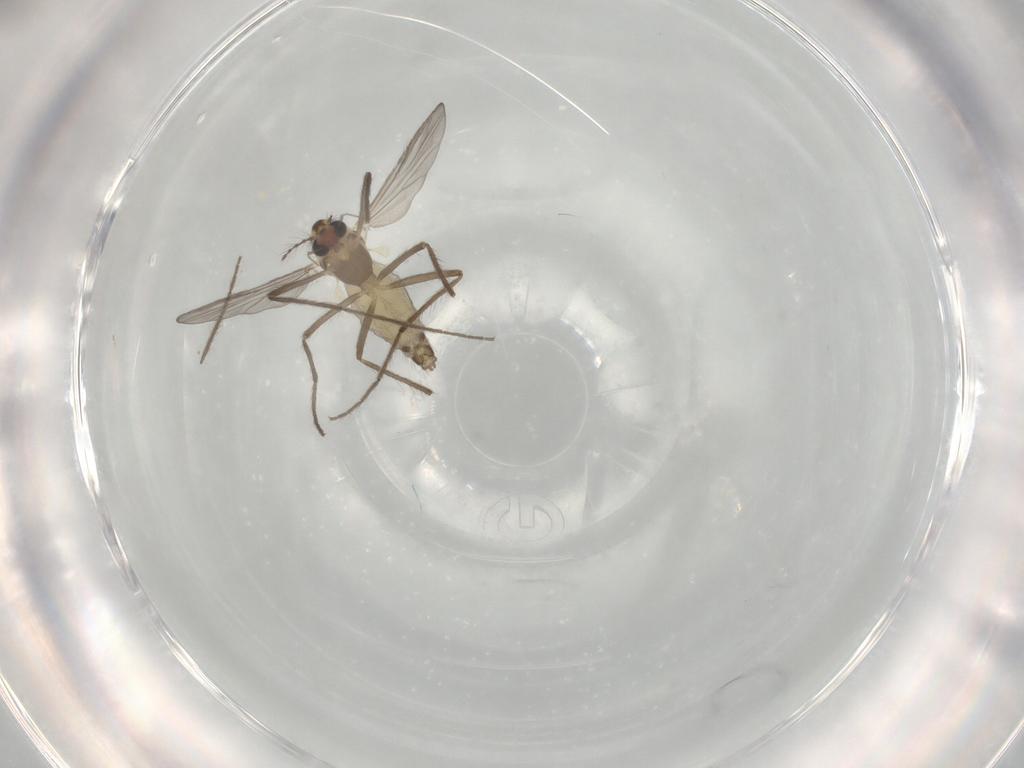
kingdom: Animalia
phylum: Arthropoda
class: Insecta
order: Diptera
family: Chironomidae
